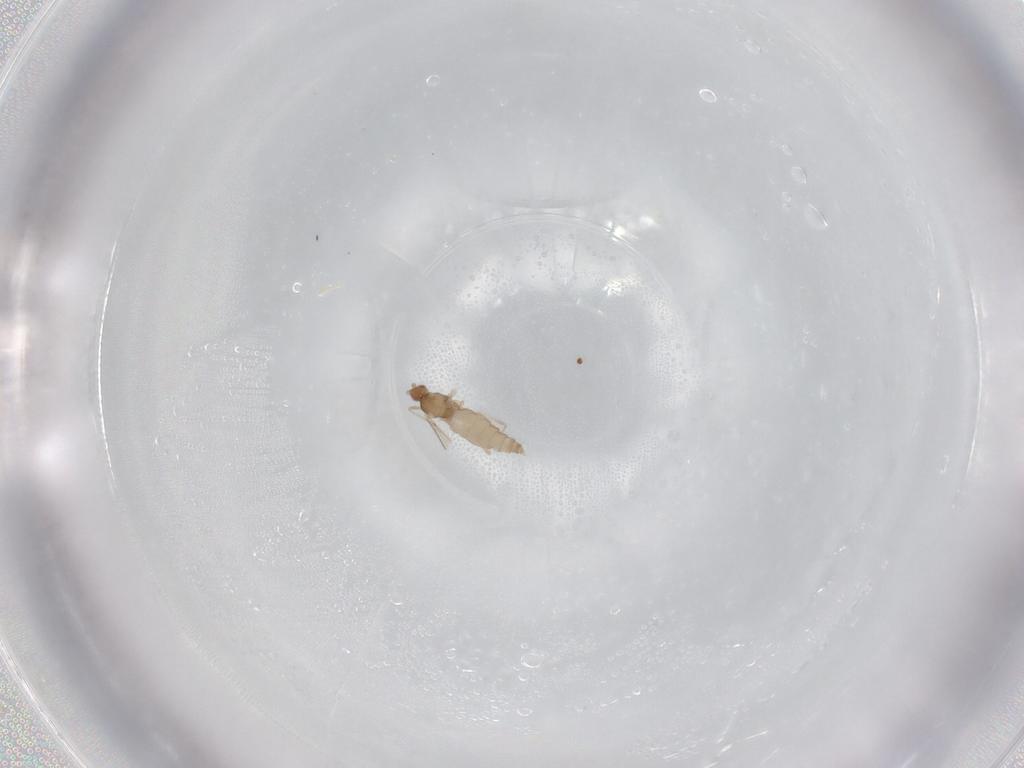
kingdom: Animalia
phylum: Arthropoda
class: Insecta
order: Diptera
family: Cecidomyiidae
